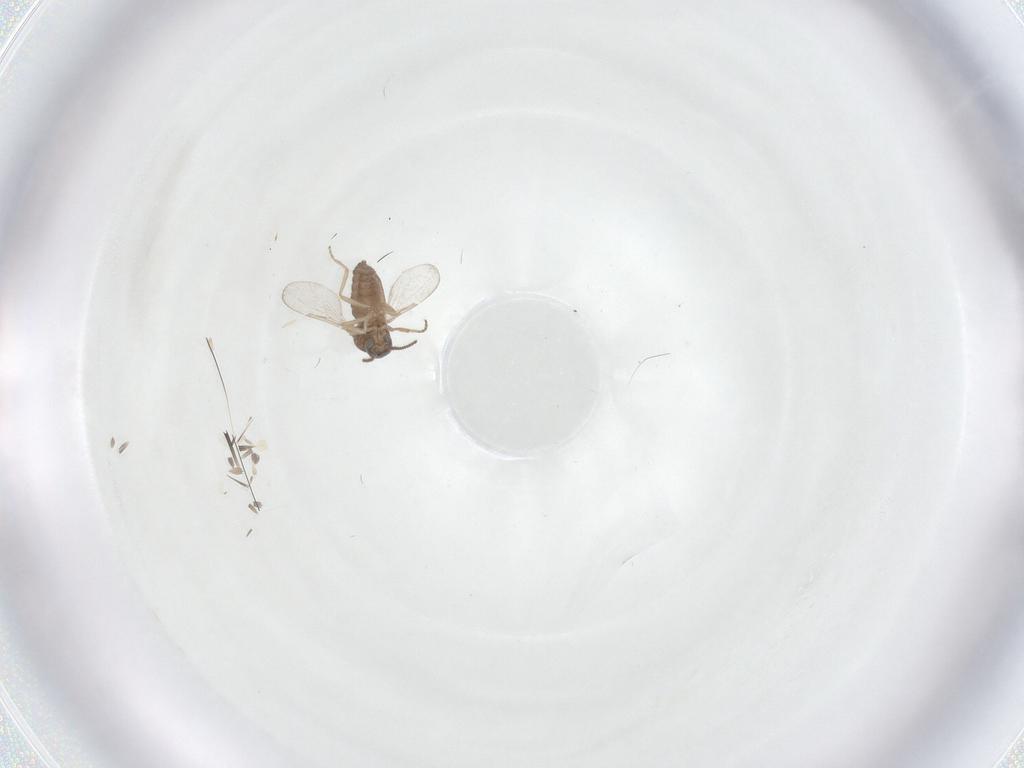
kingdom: Animalia
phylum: Arthropoda
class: Insecta
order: Diptera
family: Ceratopogonidae
